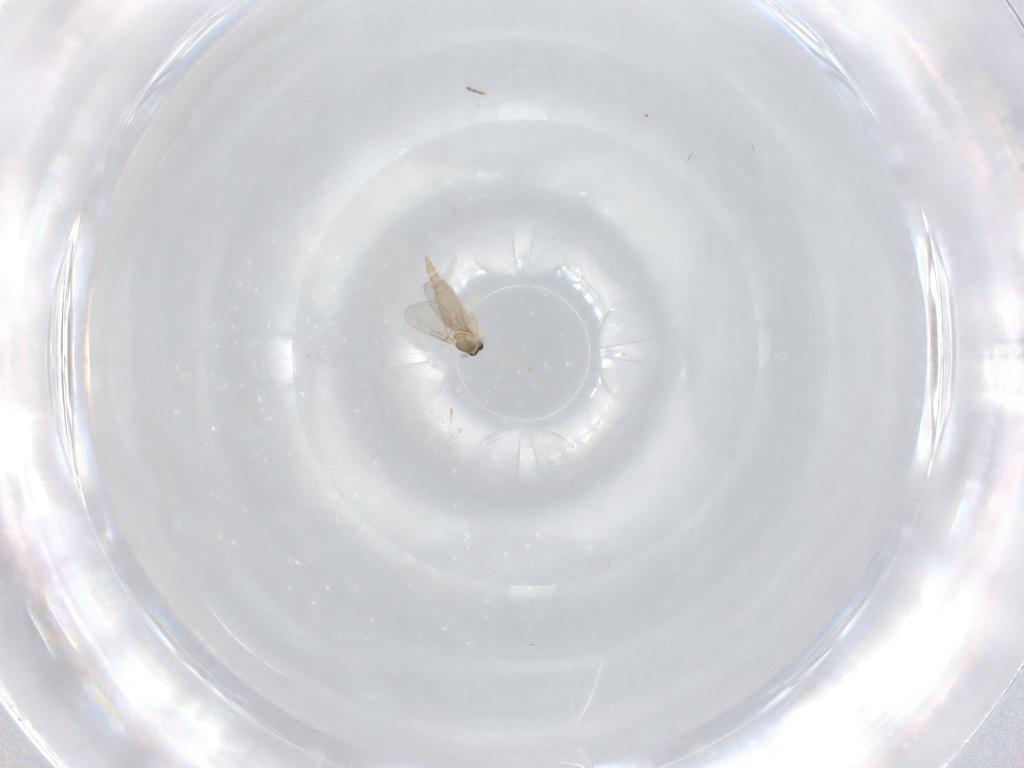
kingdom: Animalia
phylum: Arthropoda
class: Insecta
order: Diptera
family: Cecidomyiidae
